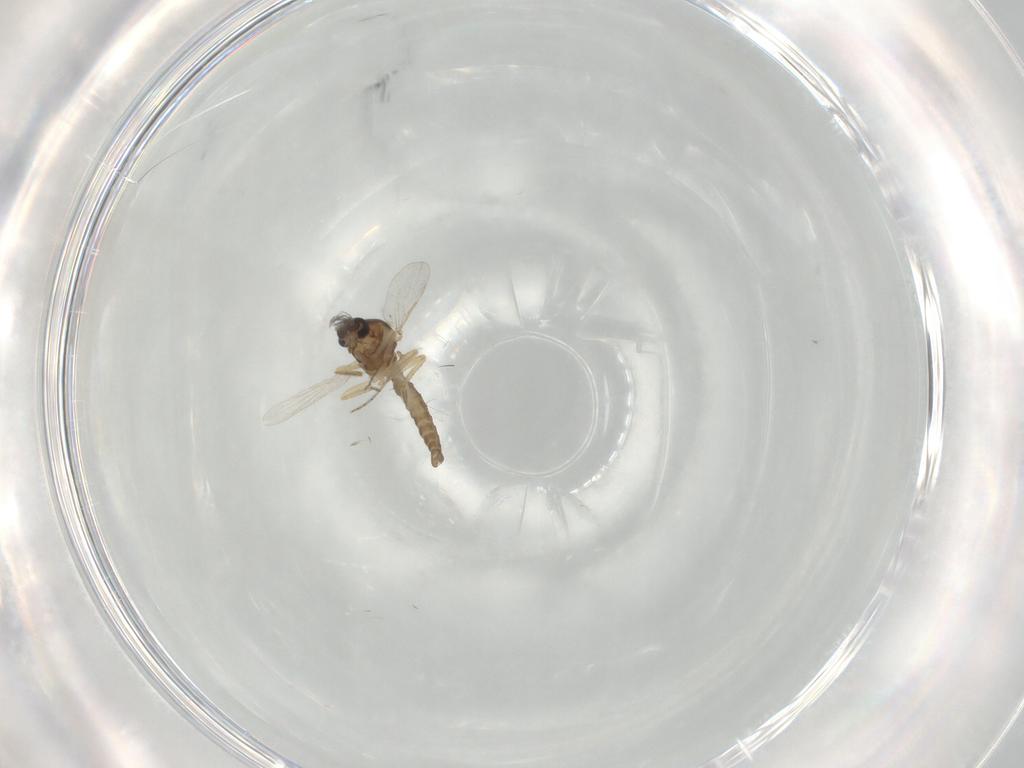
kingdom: Animalia
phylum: Arthropoda
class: Insecta
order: Diptera
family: Ceratopogonidae
